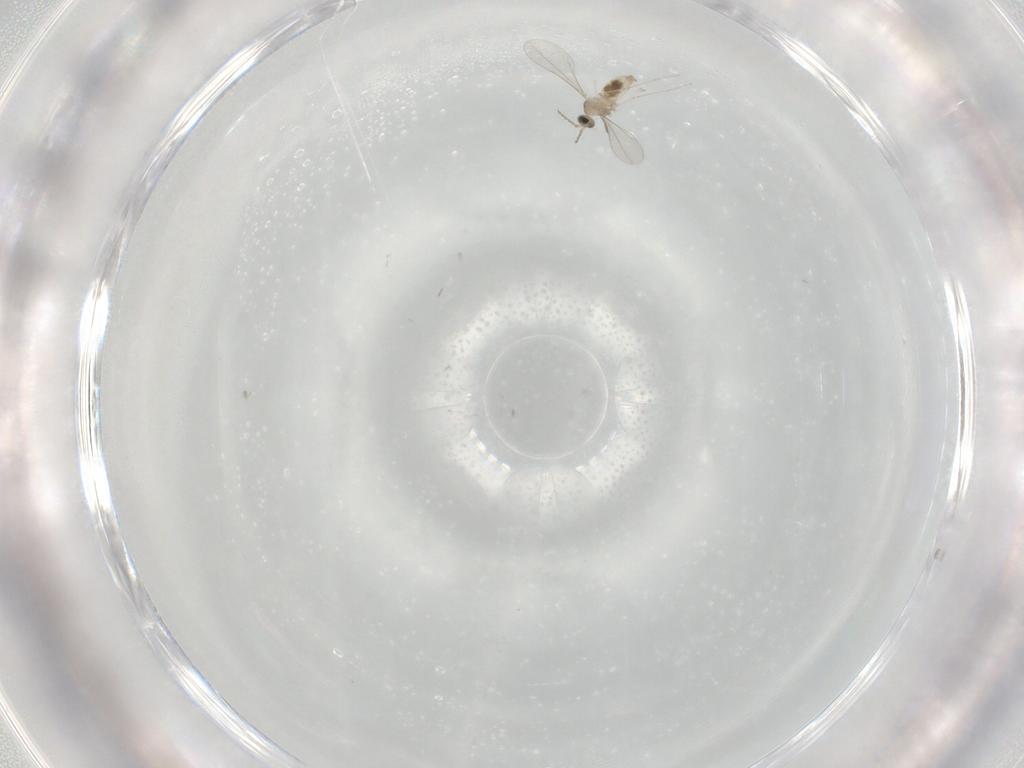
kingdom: Animalia
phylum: Arthropoda
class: Insecta
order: Diptera
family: Cecidomyiidae
